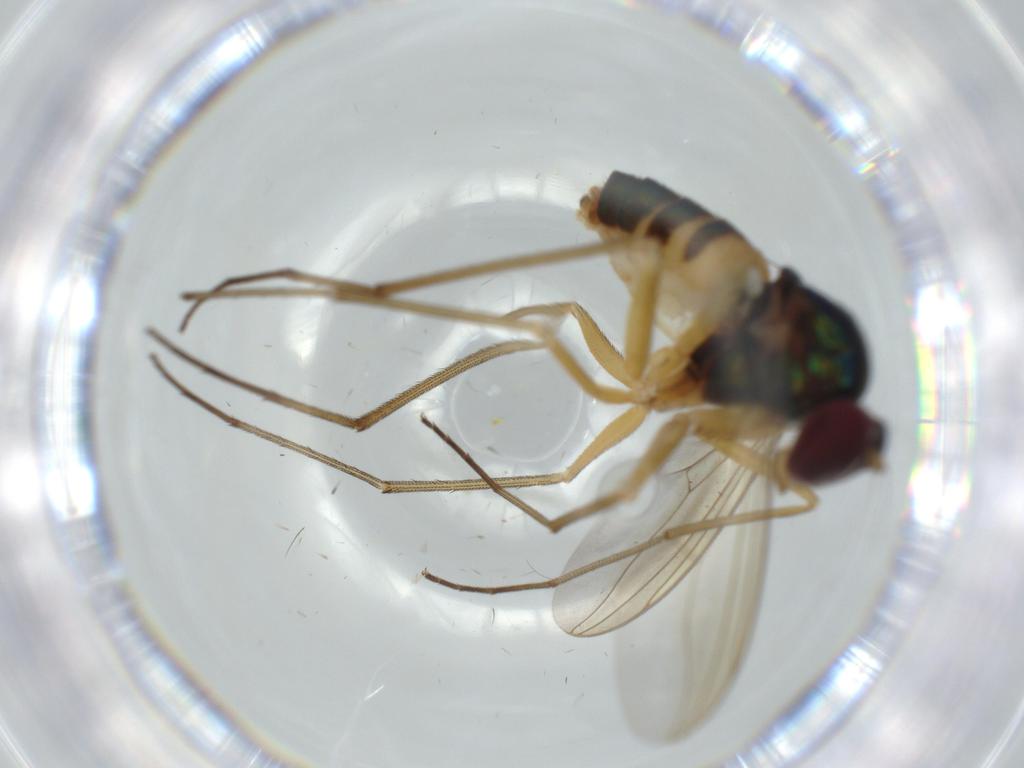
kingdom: Animalia
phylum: Arthropoda
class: Insecta
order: Diptera
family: Dolichopodidae
